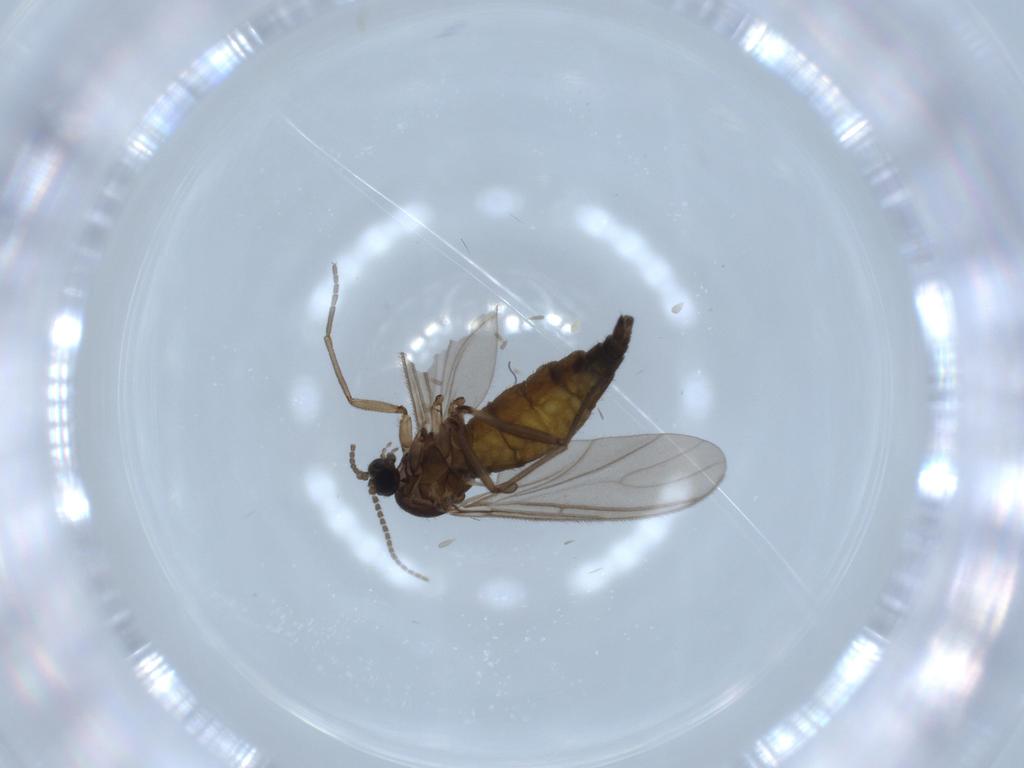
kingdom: Animalia
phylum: Arthropoda
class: Insecta
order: Diptera
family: Sciaridae
